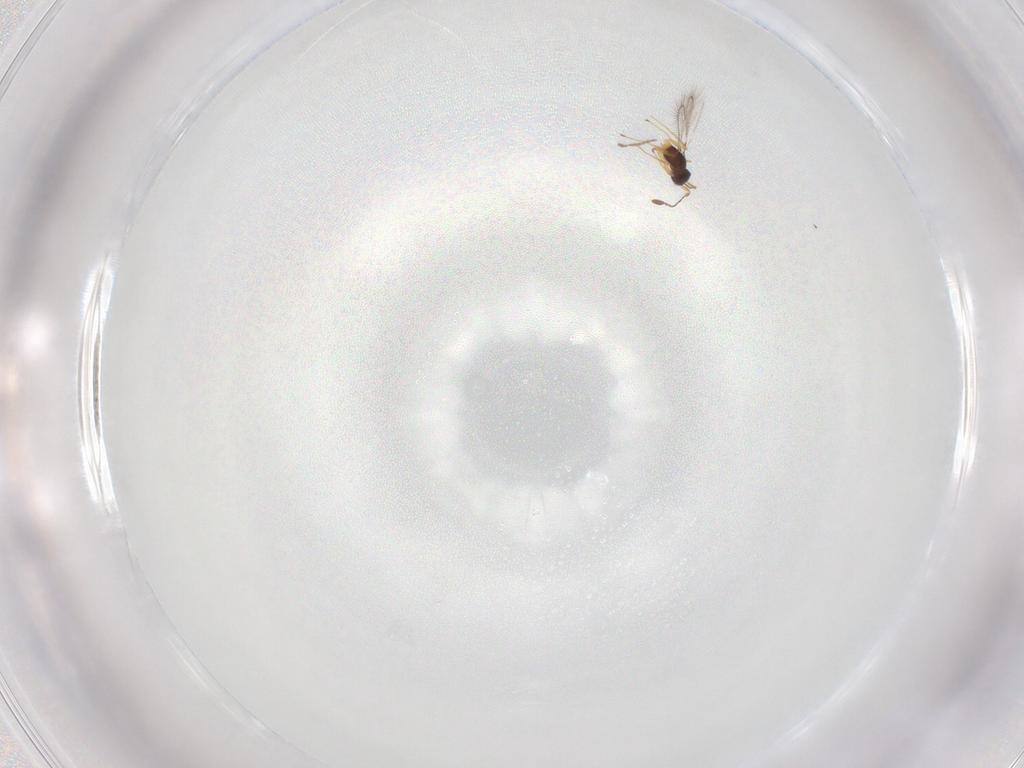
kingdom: Animalia
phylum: Arthropoda
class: Insecta
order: Hymenoptera
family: Mymaridae
